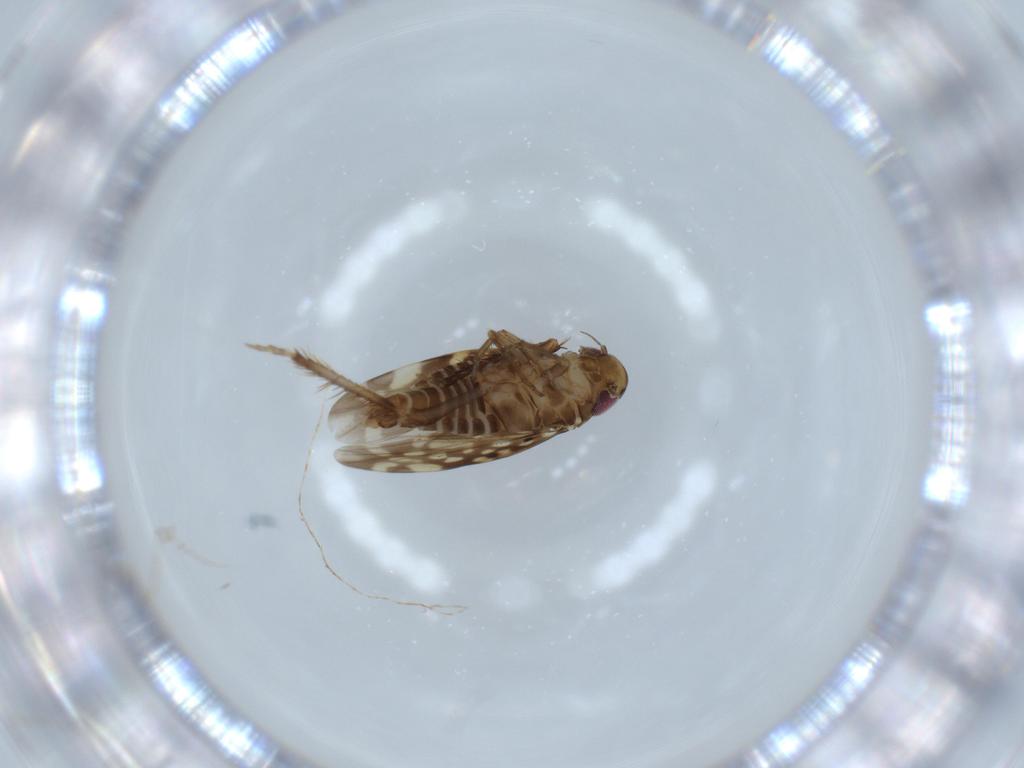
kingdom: Animalia
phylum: Arthropoda
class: Insecta
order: Hemiptera
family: Cicadellidae
